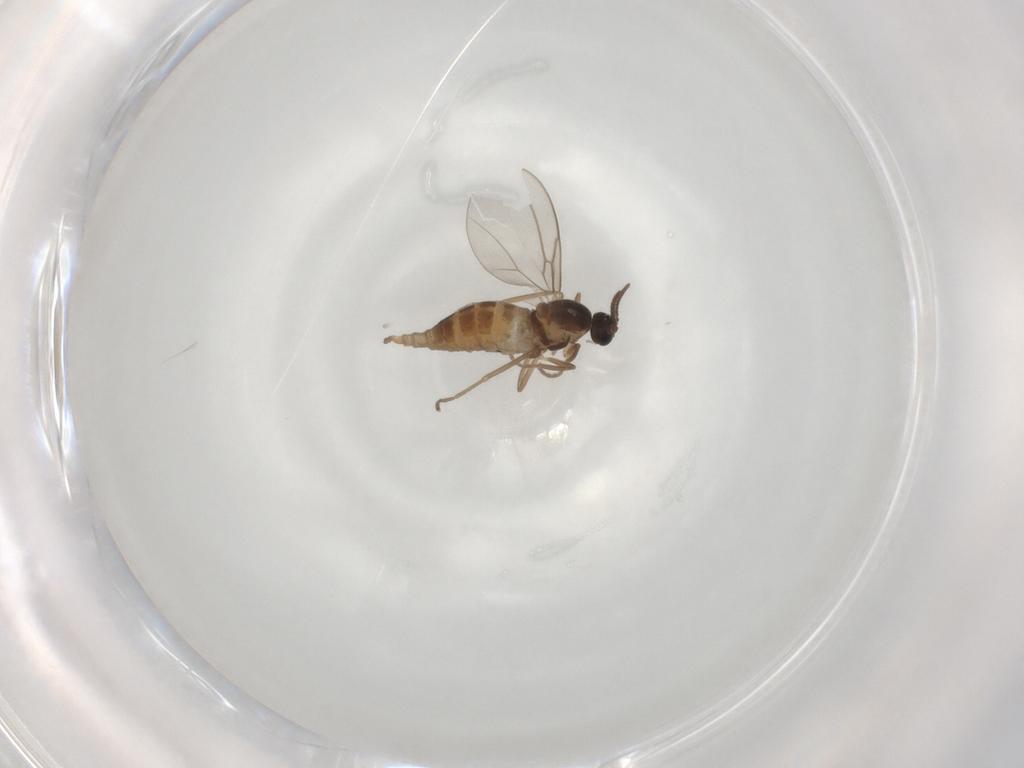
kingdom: Animalia
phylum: Arthropoda
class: Insecta
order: Diptera
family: Cecidomyiidae
